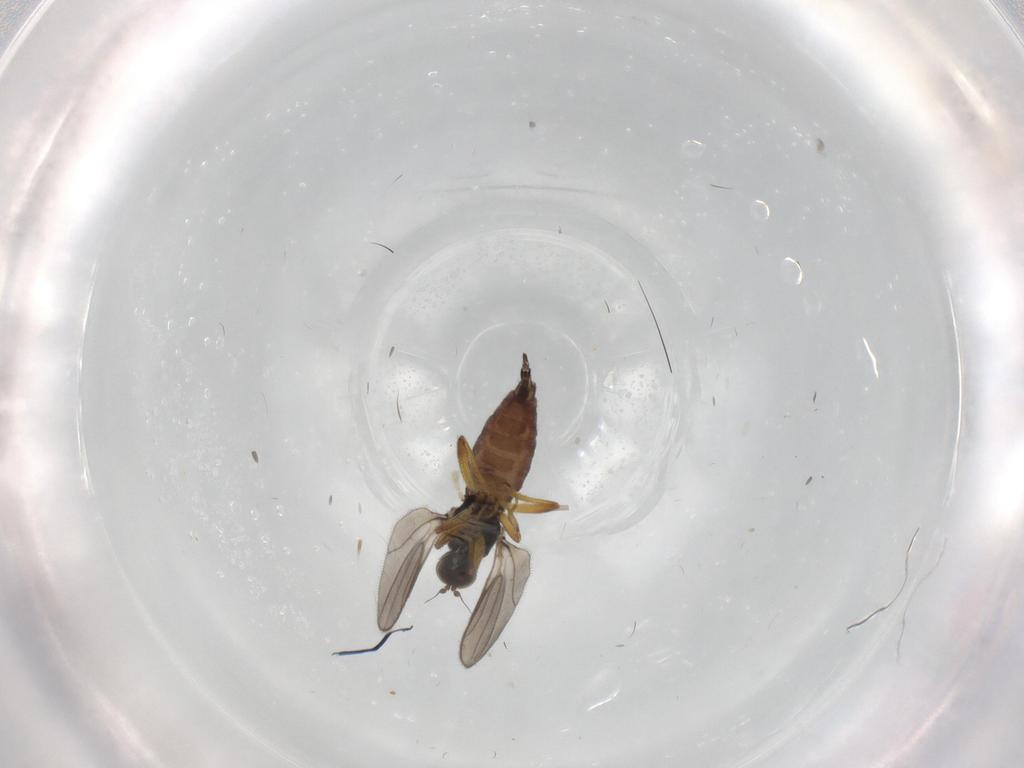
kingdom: Animalia
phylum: Arthropoda
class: Insecta
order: Diptera
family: Hybotidae
